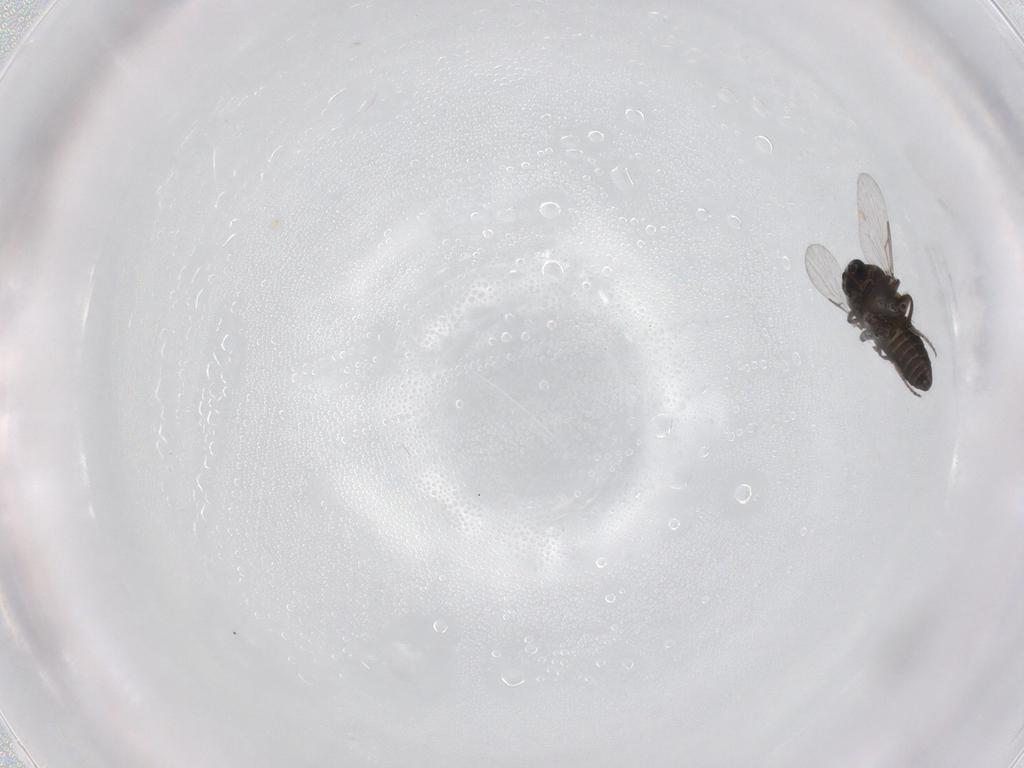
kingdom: Animalia
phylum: Arthropoda
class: Insecta
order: Diptera
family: Ceratopogonidae
